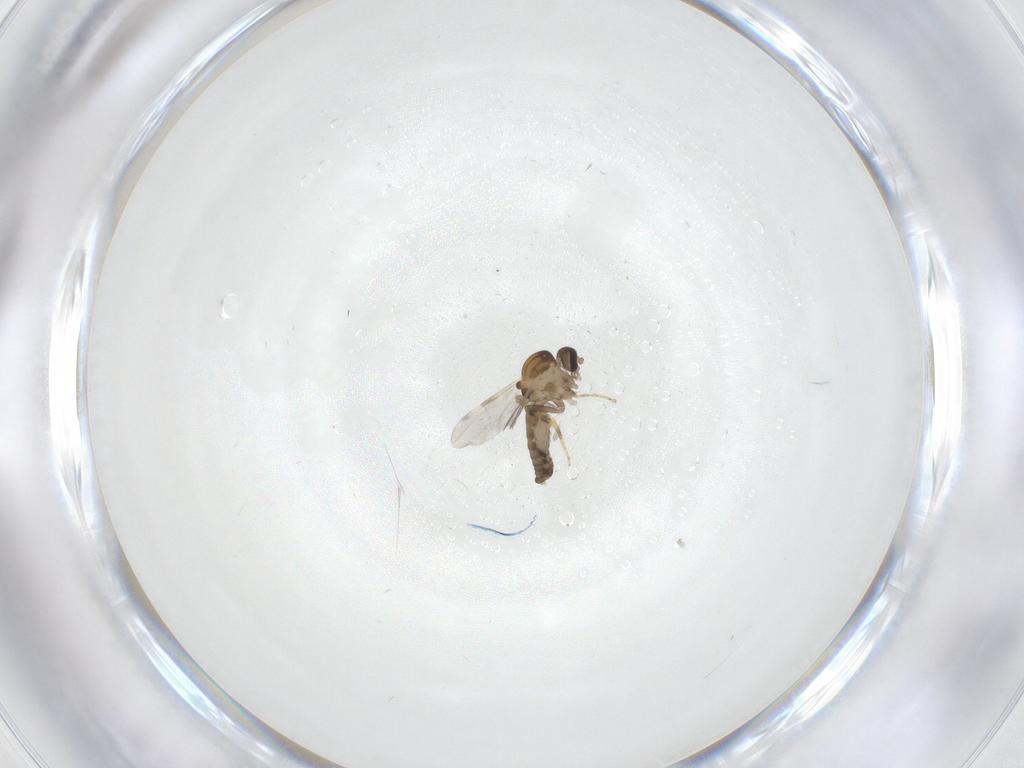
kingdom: Animalia
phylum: Arthropoda
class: Insecta
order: Diptera
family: Ceratopogonidae
